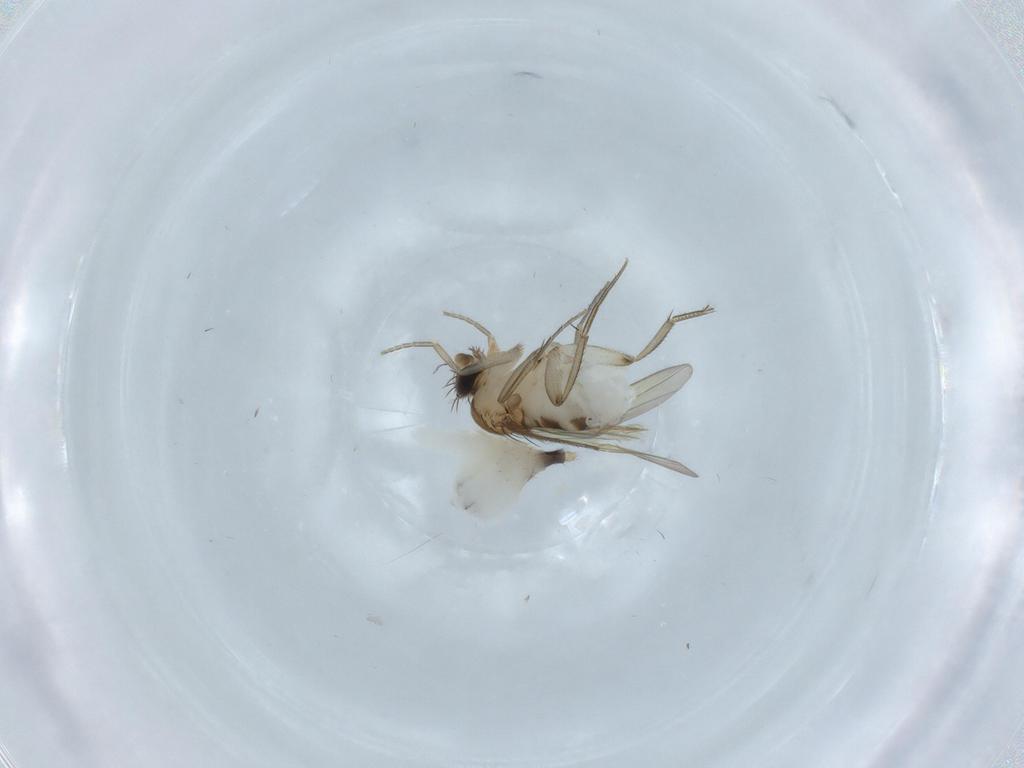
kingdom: Animalia
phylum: Arthropoda
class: Insecta
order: Diptera
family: Phoridae
